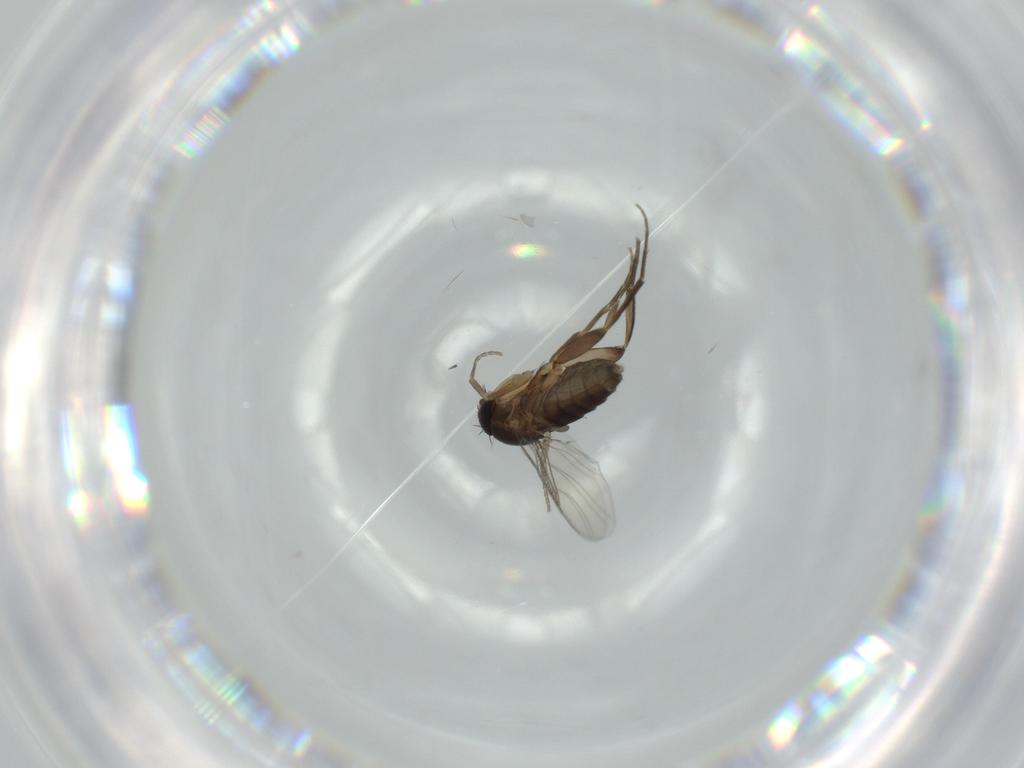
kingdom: Animalia
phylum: Arthropoda
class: Insecta
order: Diptera
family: Phoridae
